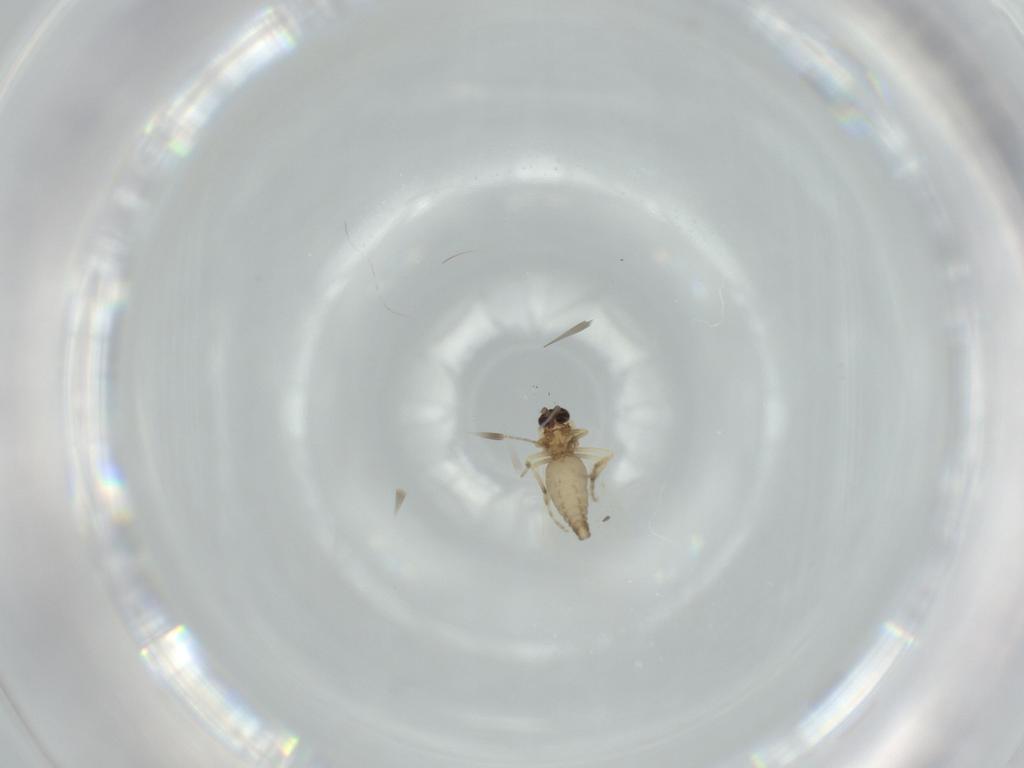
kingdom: Animalia
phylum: Arthropoda
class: Insecta
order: Diptera
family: Ceratopogonidae
